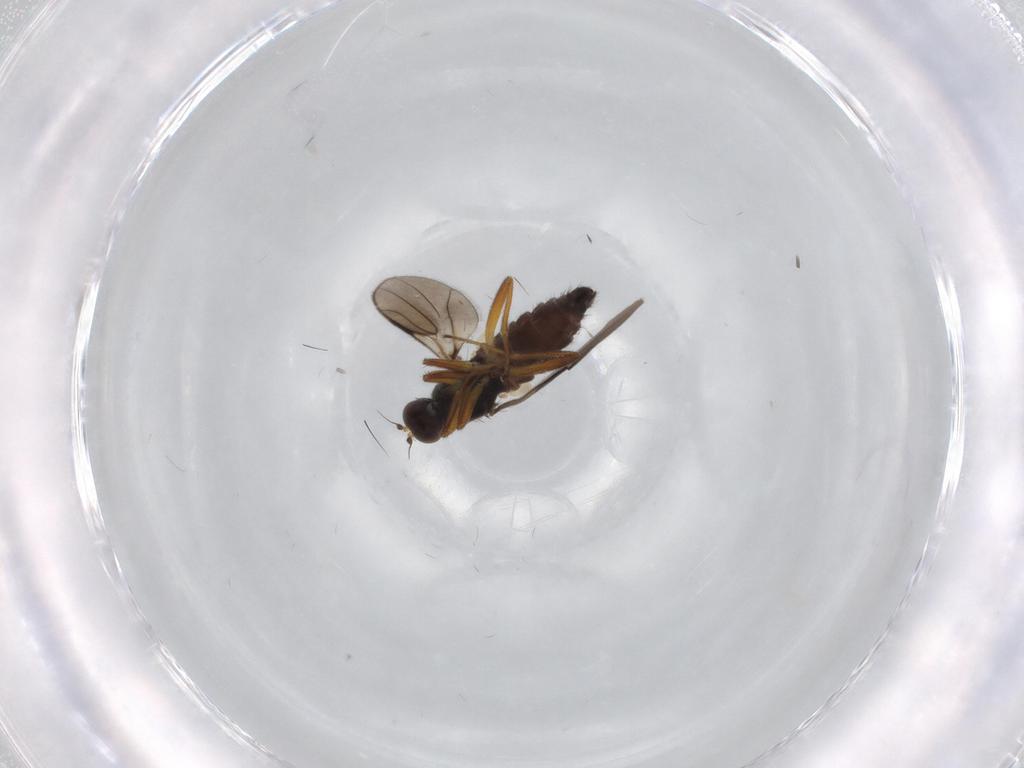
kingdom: Animalia
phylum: Arthropoda
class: Insecta
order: Diptera
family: Hybotidae
